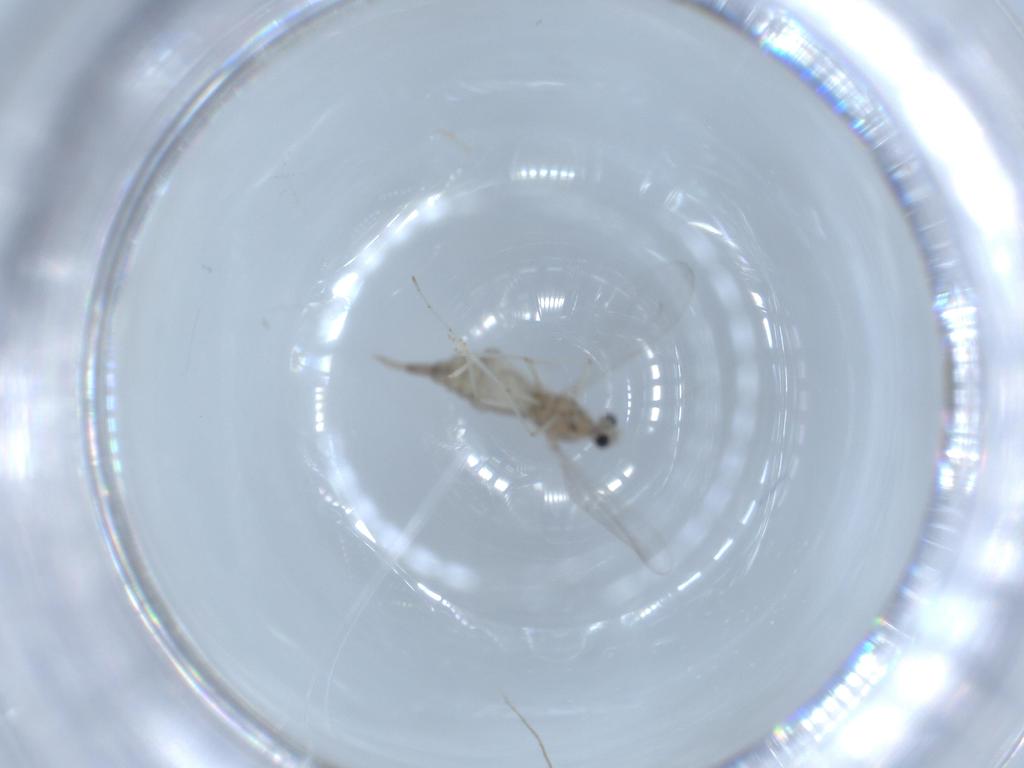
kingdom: Animalia
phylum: Arthropoda
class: Insecta
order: Diptera
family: Cecidomyiidae
